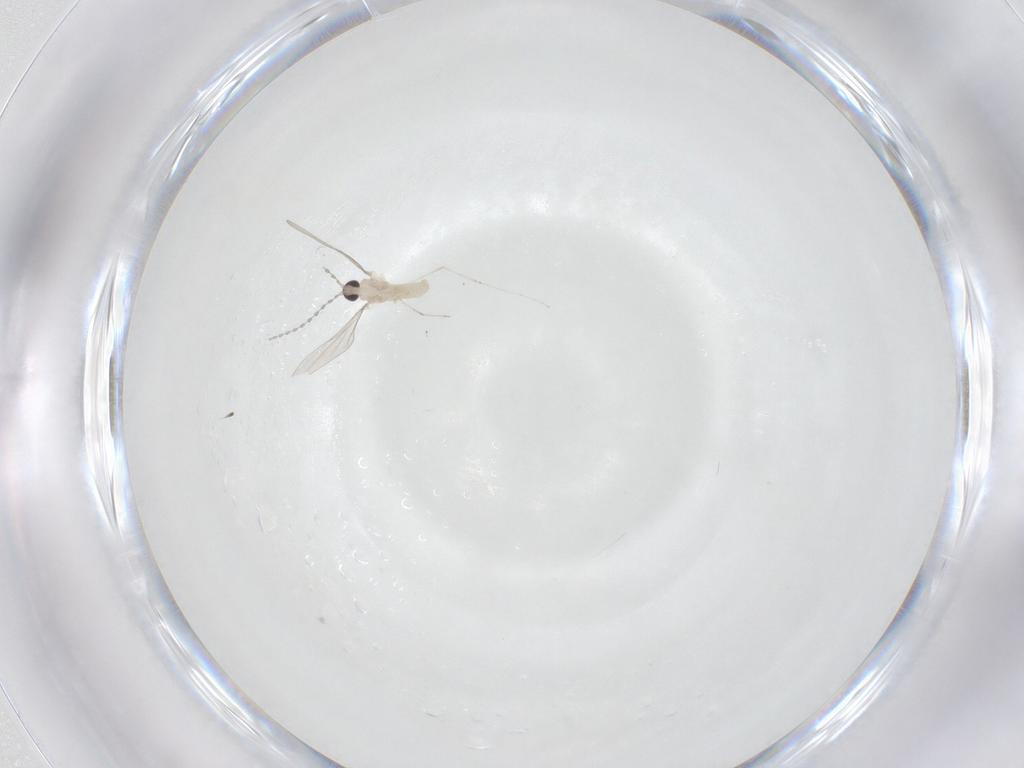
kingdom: Animalia
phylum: Arthropoda
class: Insecta
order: Diptera
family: Cecidomyiidae
